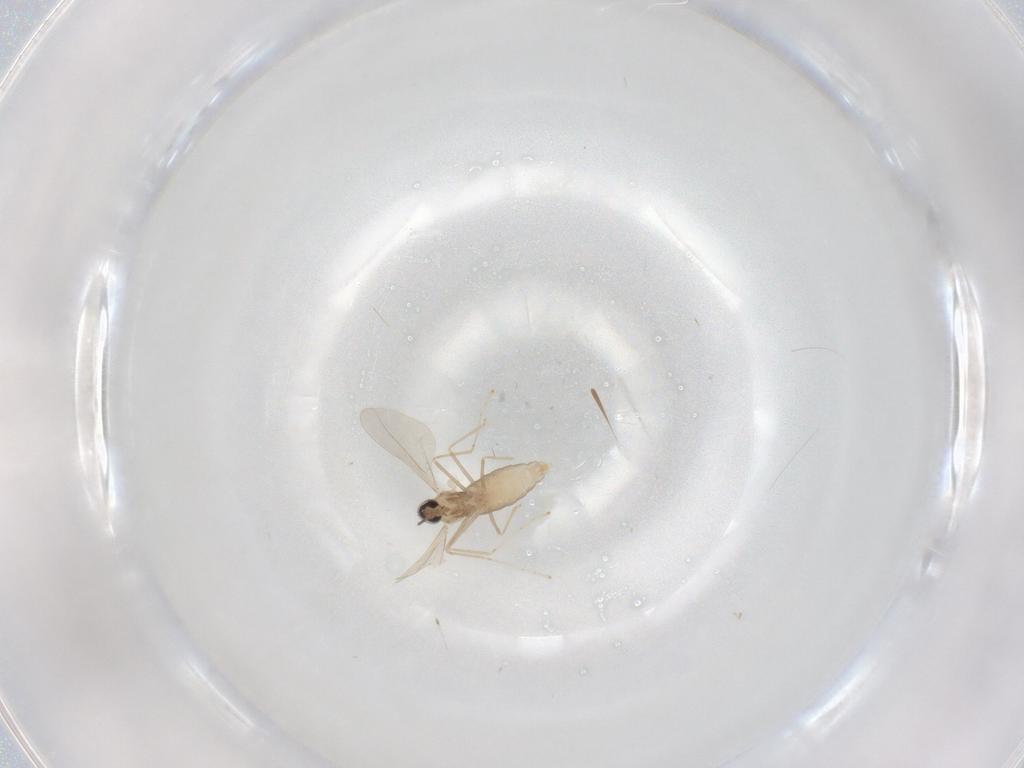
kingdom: Animalia
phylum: Arthropoda
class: Insecta
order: Diptera
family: Cecidomyiidae
